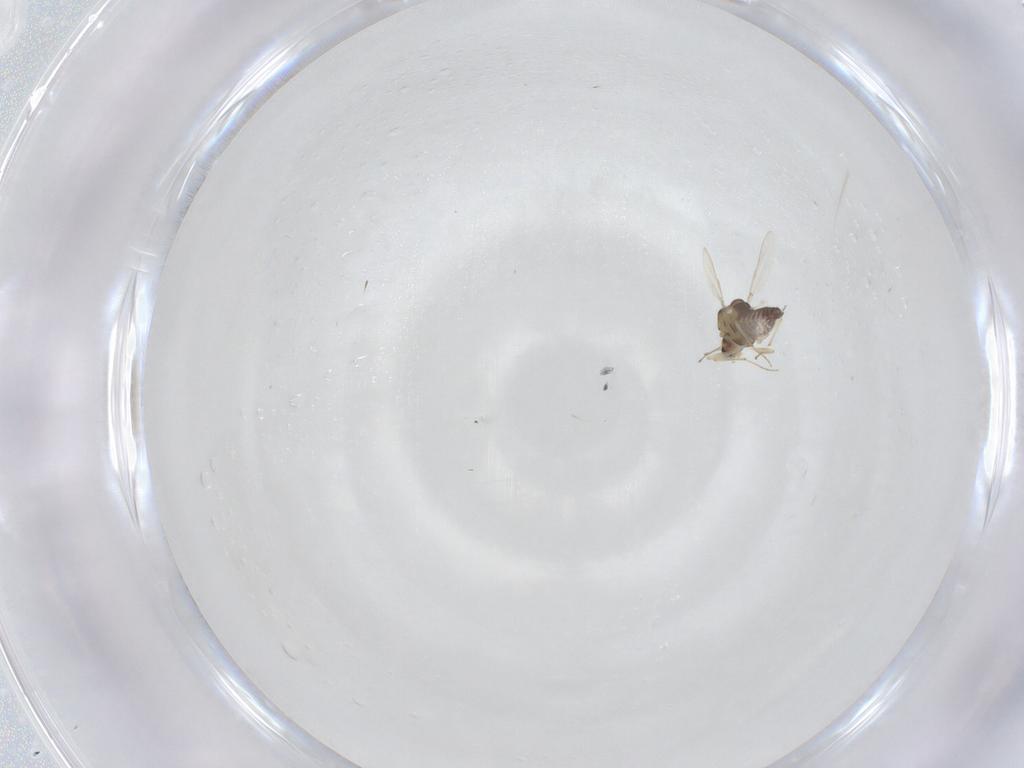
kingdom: Animalia
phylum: Arthropoda
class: Insecta
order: Diptera
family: Chironomidae
